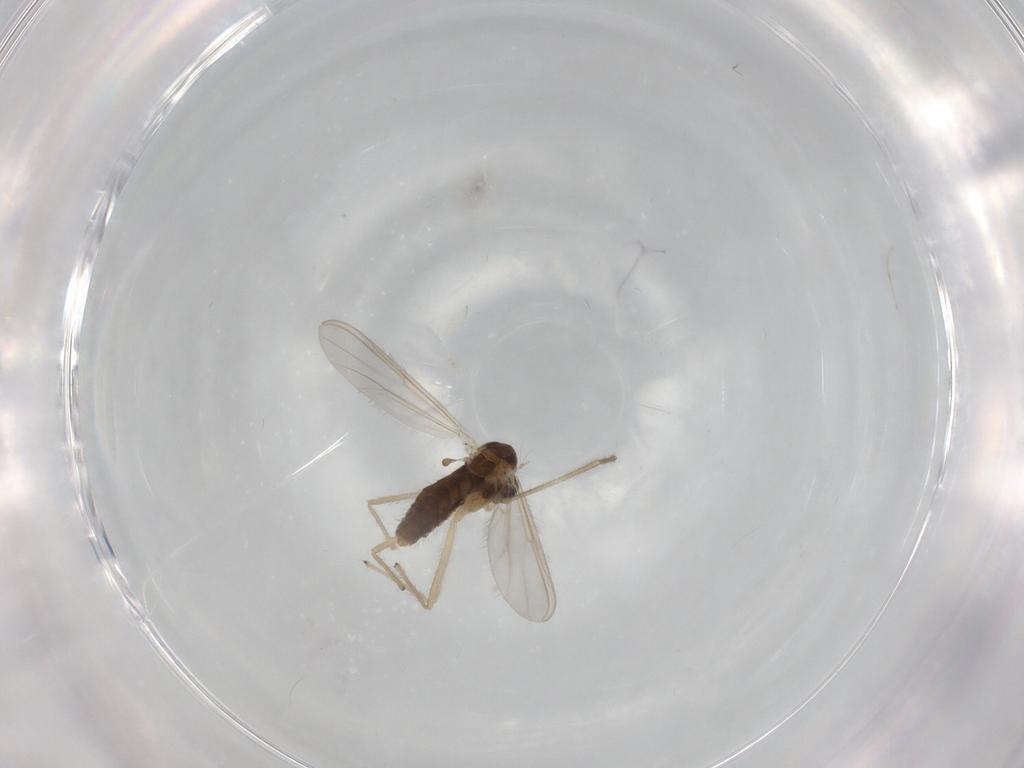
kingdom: Animalia
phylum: Arthropoda
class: Insecta
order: Diptera
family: Chironomidae
